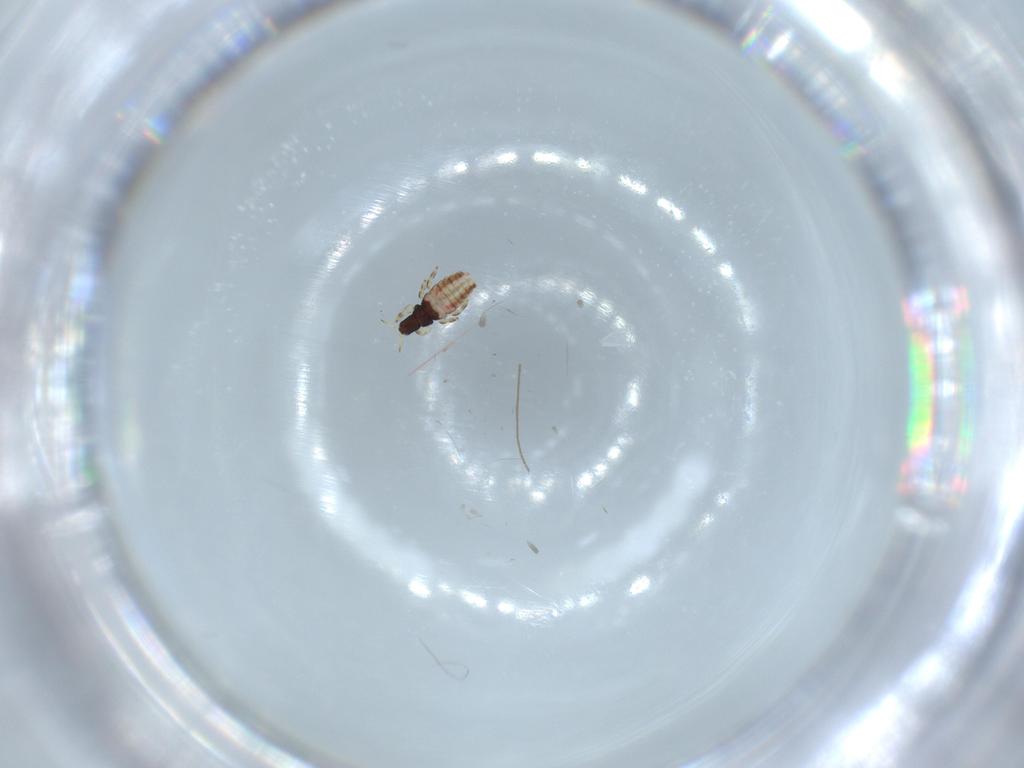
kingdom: Animalia
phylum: Arthropoda
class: Insecta
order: Thysanoptera
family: Phlaeothripidae
